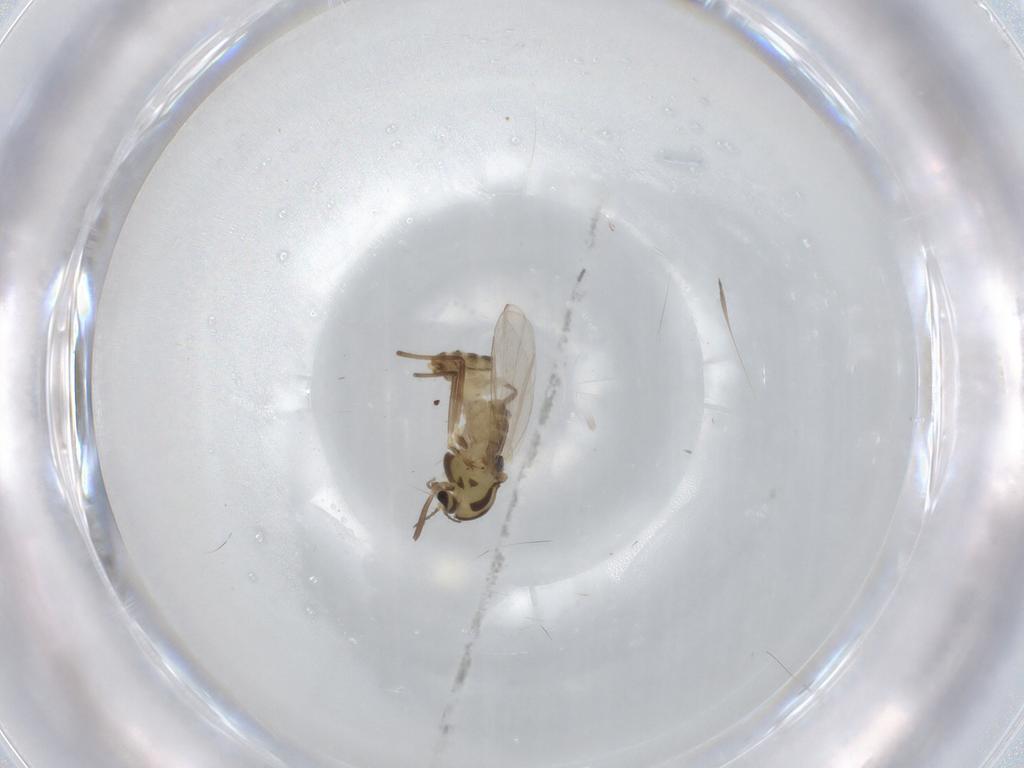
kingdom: Animalia
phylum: Arthropoda
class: Insecta
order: Diptera
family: Chironomidae
